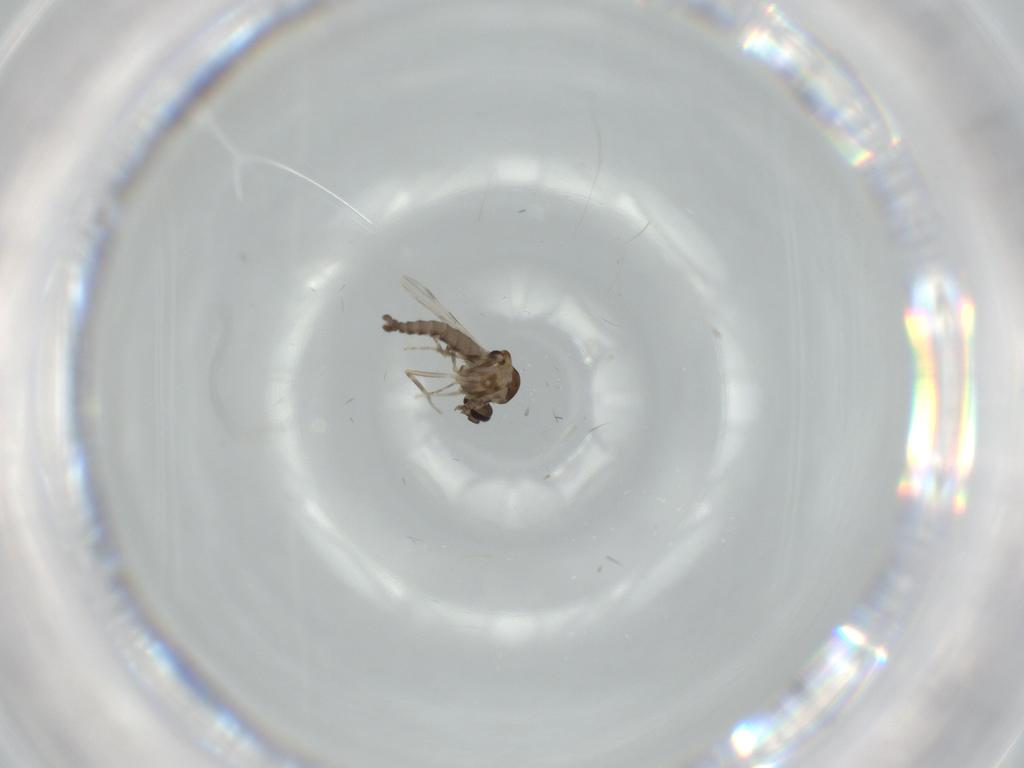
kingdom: Animalia
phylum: Arthropoda
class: Insecta
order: Diptera
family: Ceratopogonidae
